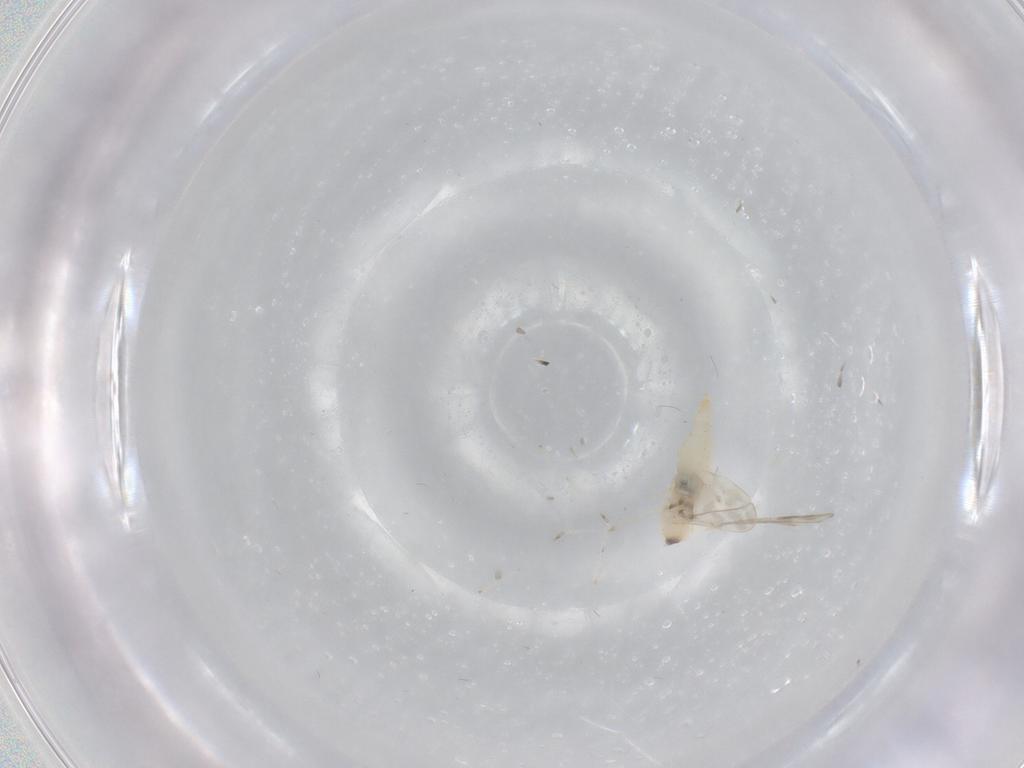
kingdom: Animalia
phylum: Arthropoda
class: Insecta
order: Diptera
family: Cecidomyiidae
